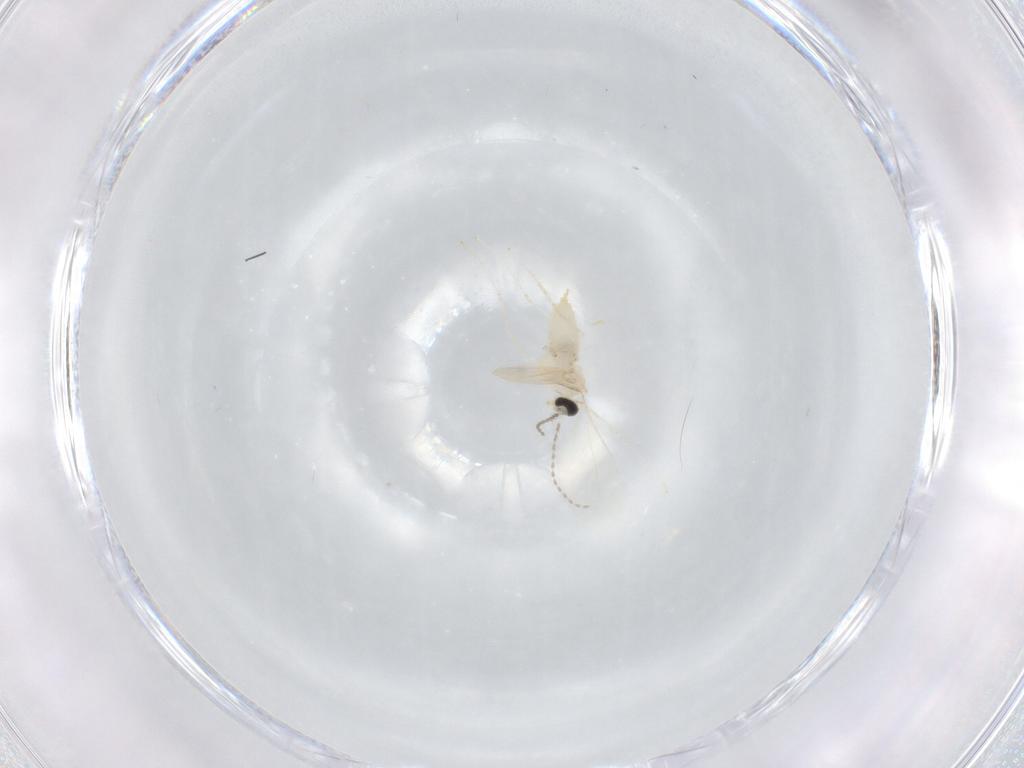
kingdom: Animalia
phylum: Arthropoda
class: Insecta
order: Diptera
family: Cecidomyiidae
